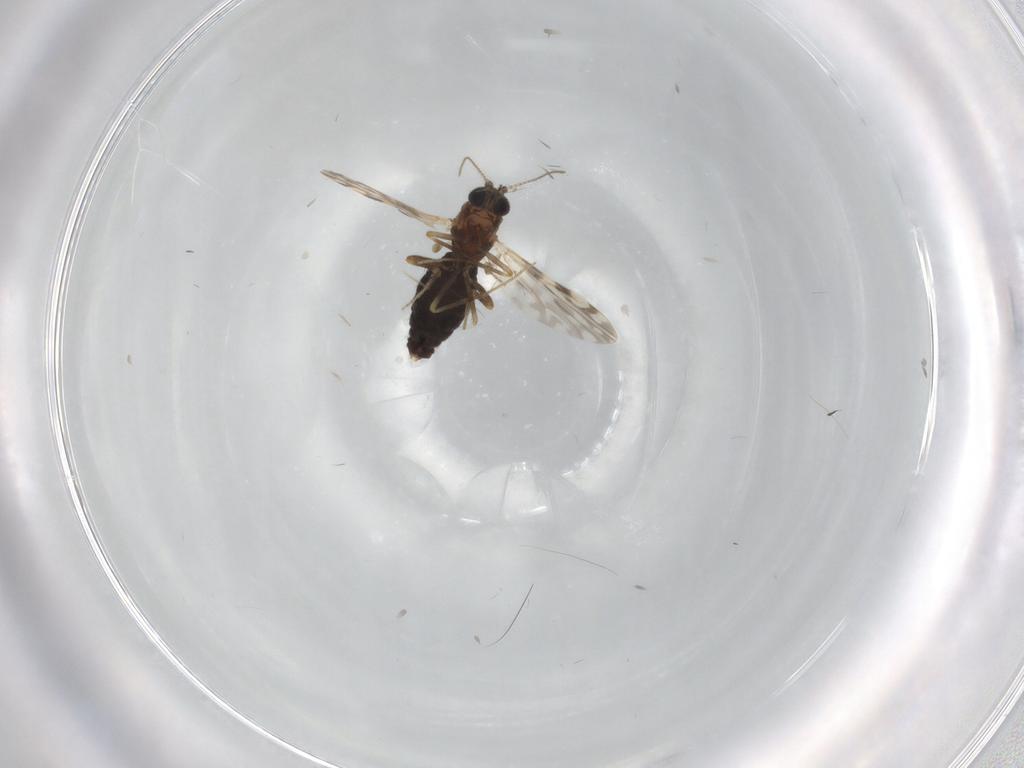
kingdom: Animalia
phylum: Arthropoda
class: Insecta
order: Diptera
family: Ceratopogonidae
